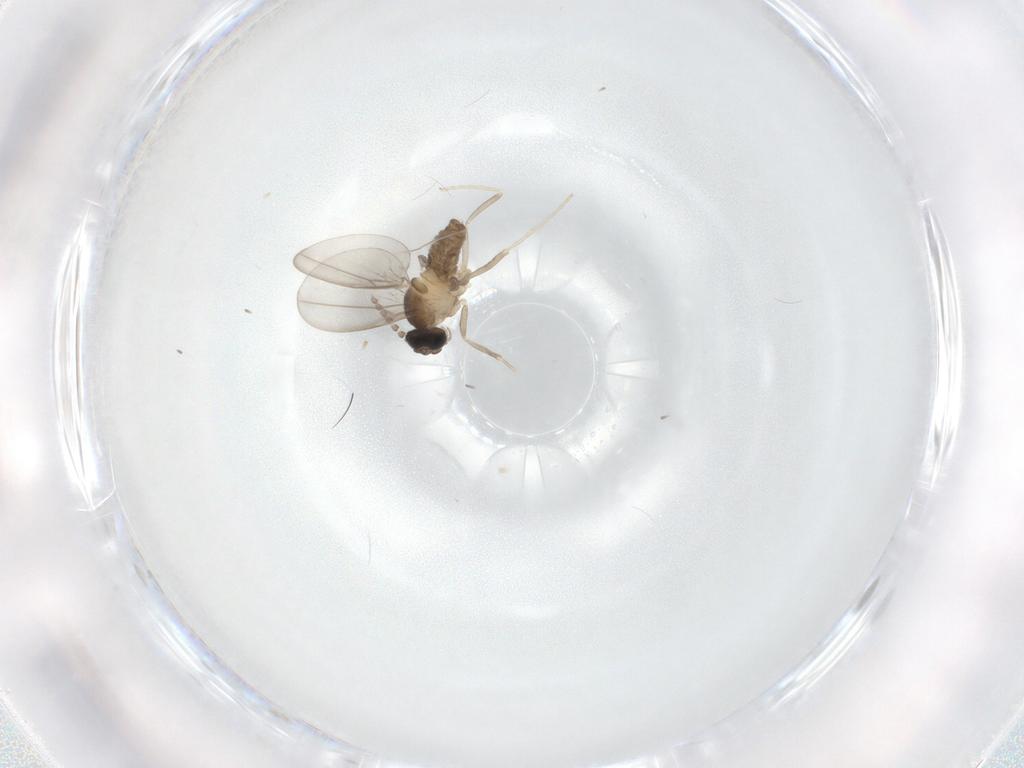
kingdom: Animalia
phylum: Arthropoda
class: Insecta
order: Diptera
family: Cecidomyiidae
